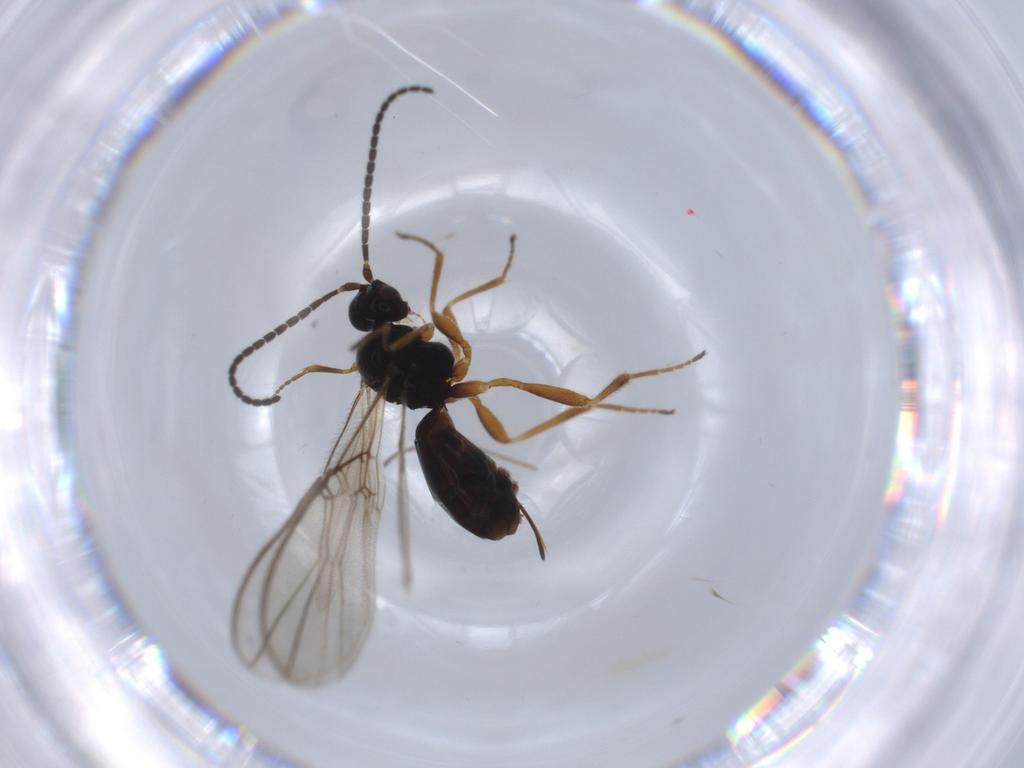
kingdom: Animalia
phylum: Arthropoda
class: Insecta
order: Hymenoptera
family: Braconidae
